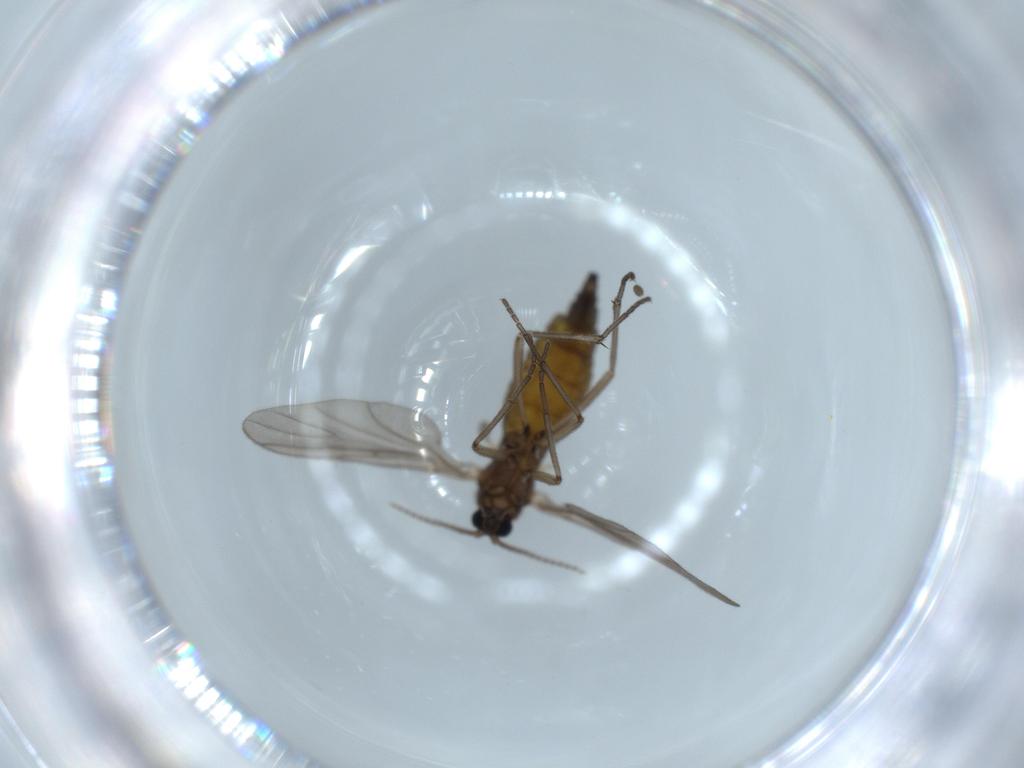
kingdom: Animalia
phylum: Arthropoda
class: Insecta
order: Diptera
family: Sciaridae
